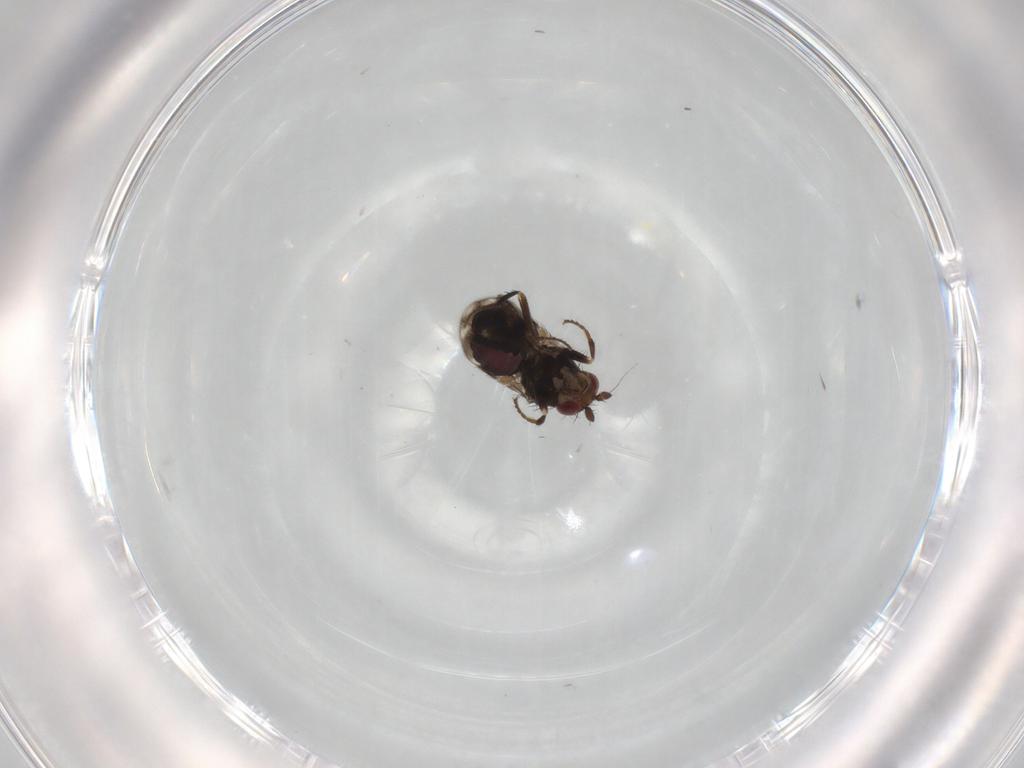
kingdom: Animalia
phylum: Arthropoda
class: Insecta
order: Diptera
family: Sphaeroceridae
